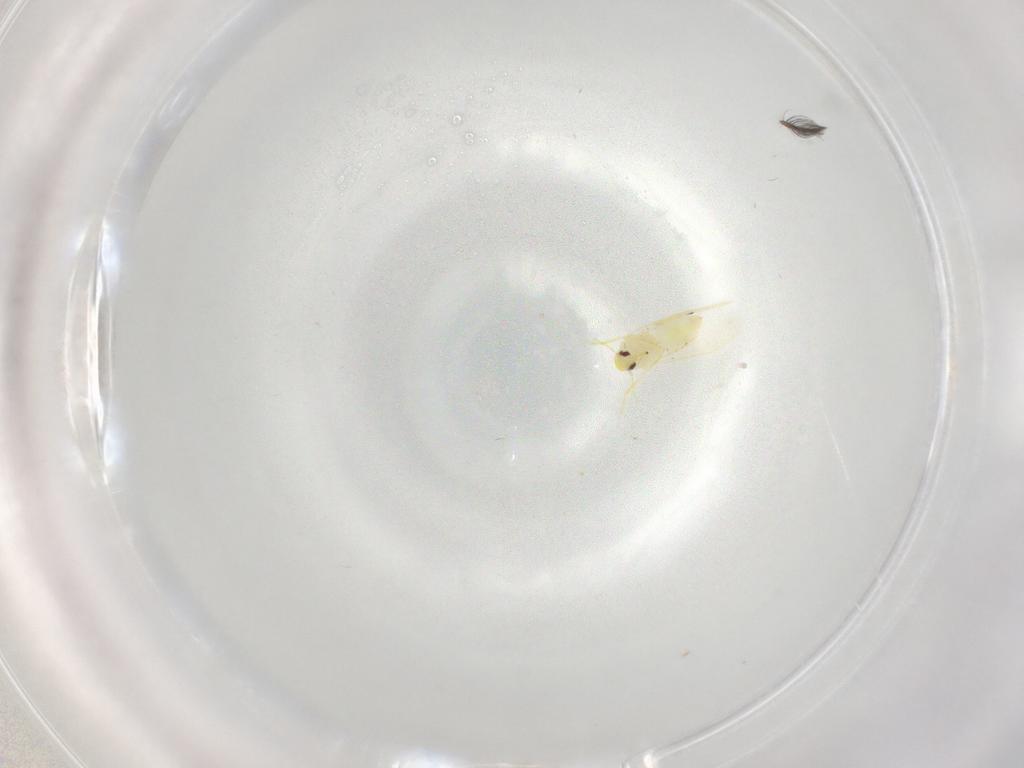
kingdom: Animalia
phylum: Arthropoda
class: Insecta
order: Hemiptera
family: Aleyrodidae
